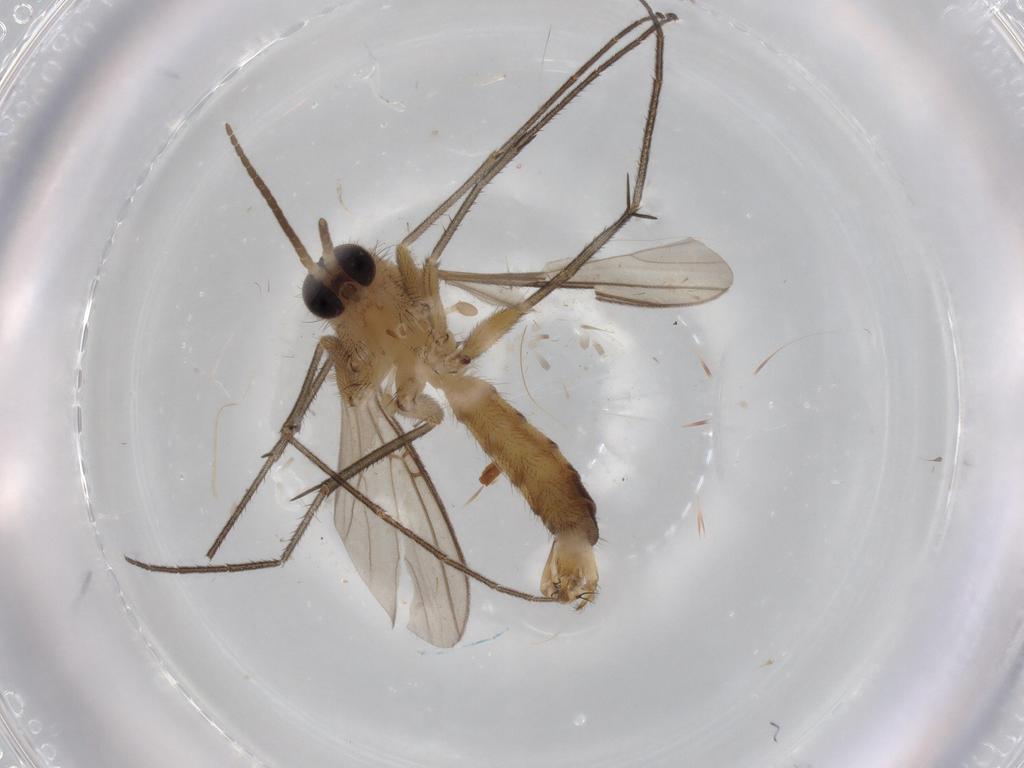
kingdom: Animalia
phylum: Arthropoda
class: Insecta
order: Diptera
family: Sciaridae
